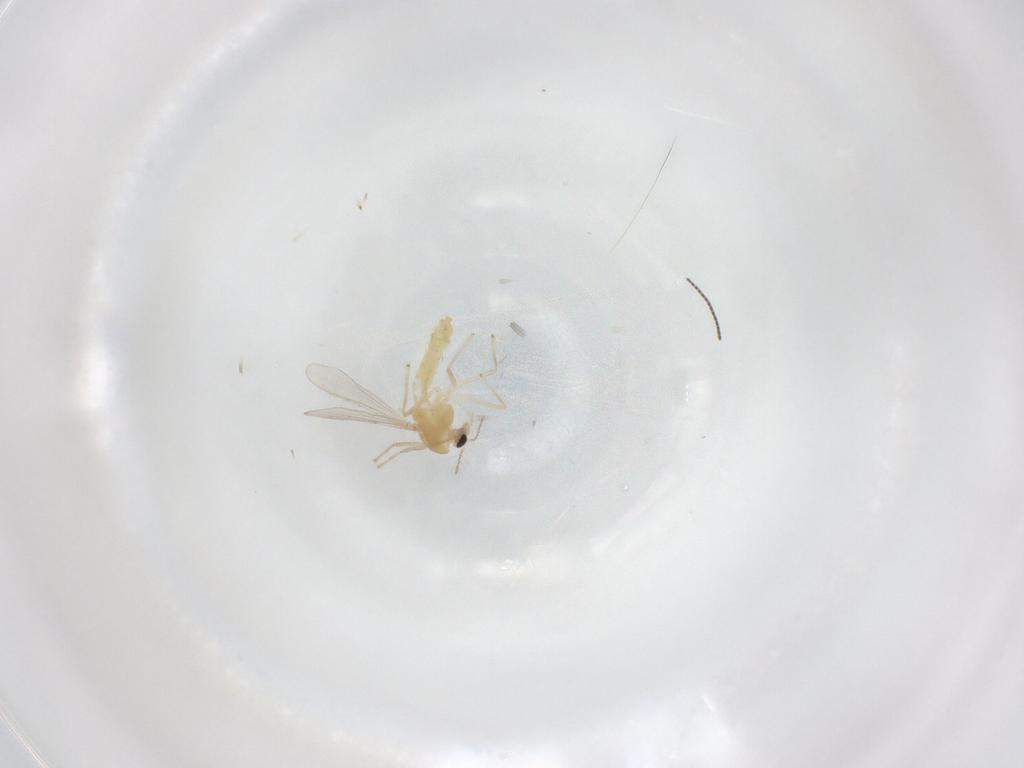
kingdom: Animalia
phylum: Arthropoda
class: Insecta
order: Diptera
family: Chironomidae
